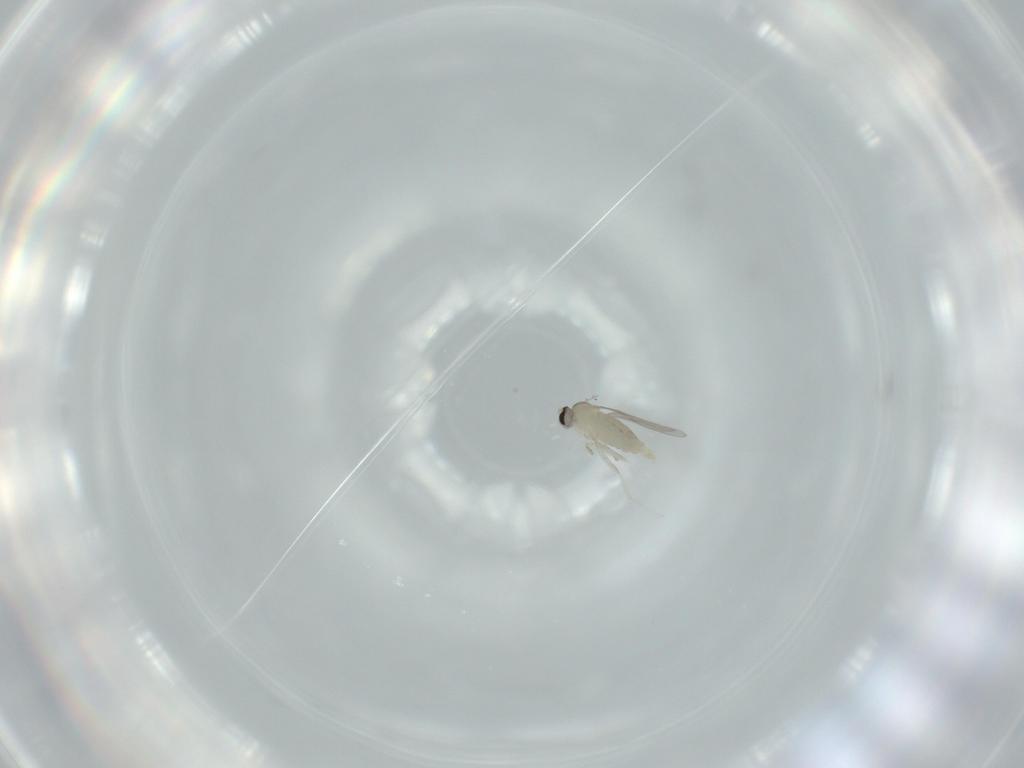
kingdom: Animalia
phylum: Arthropoda
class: Insecta
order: Diptera
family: Cecidomyiidae
